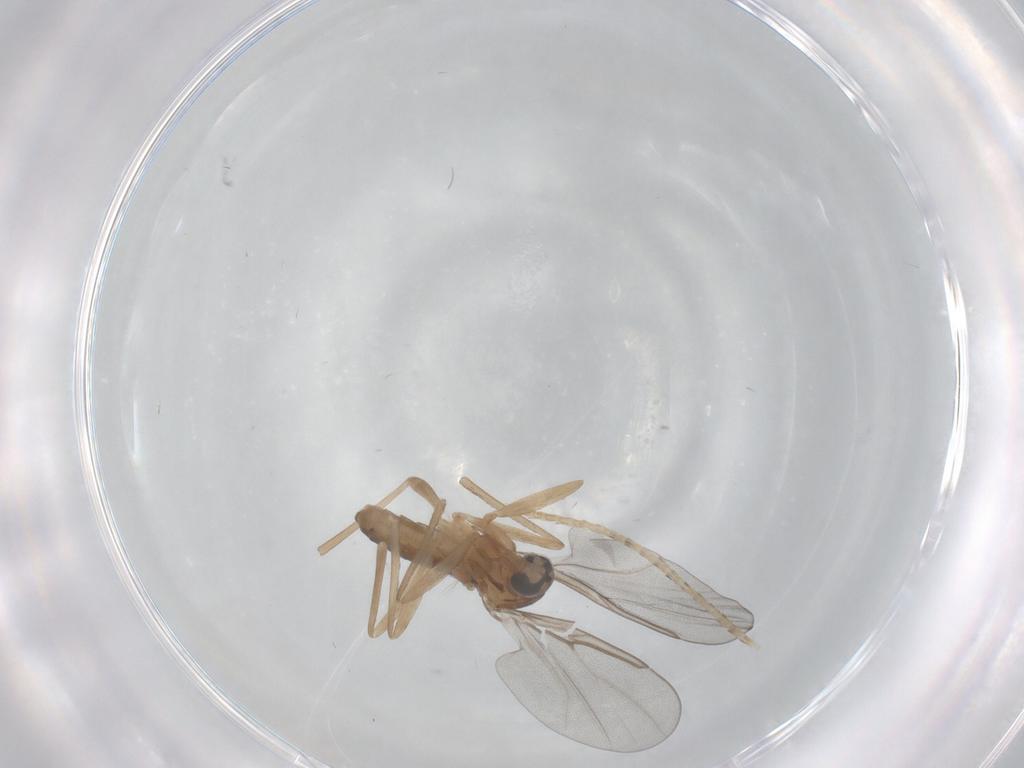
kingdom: Animalia
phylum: Arthropoda
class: Insecta
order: Diptera
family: Cecidomyiidae
